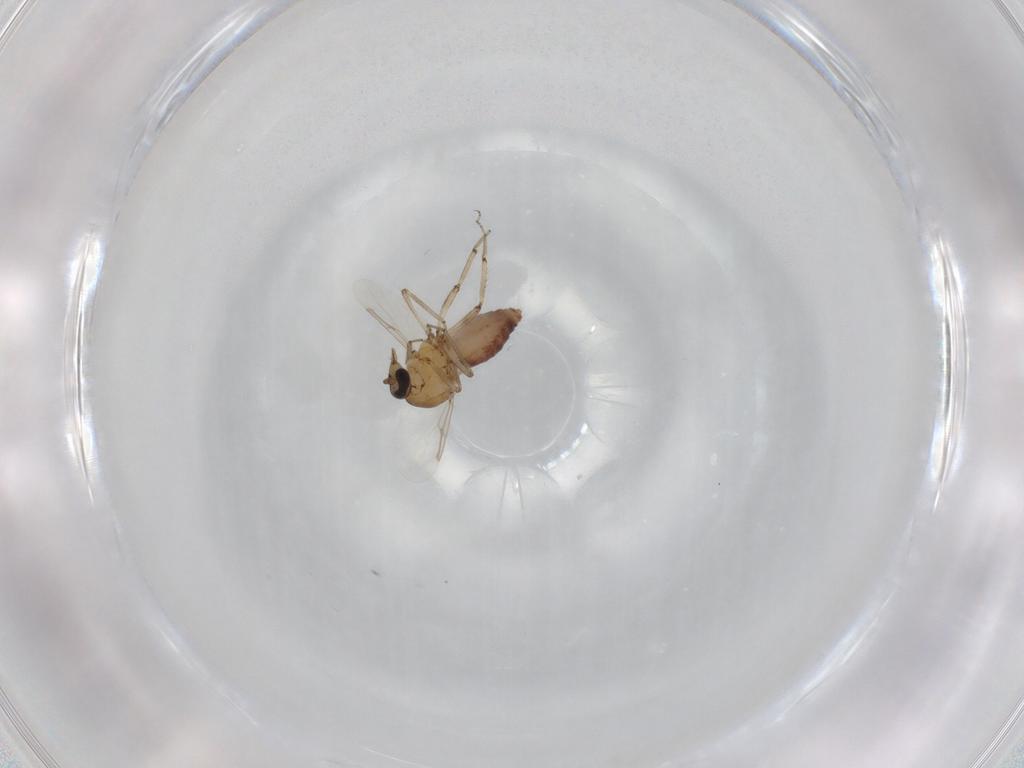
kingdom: Animalia
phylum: Arthropoda
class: Insecta
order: Diptera
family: Ceratopogonidae
